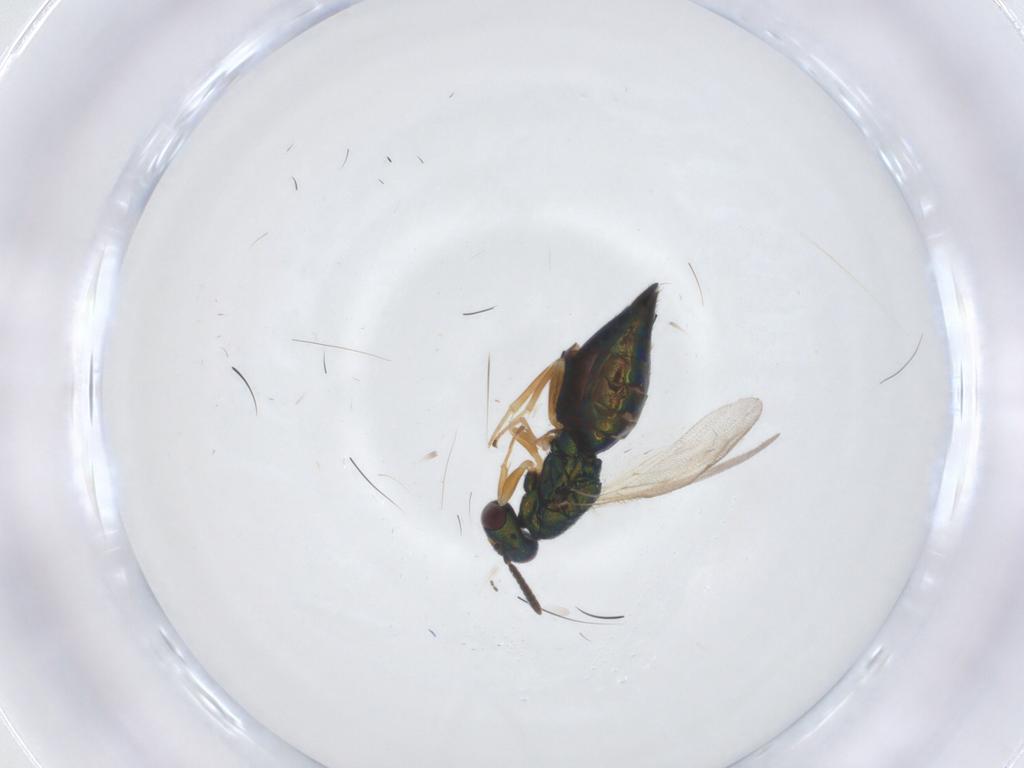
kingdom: Animalia
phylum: Arthropoda
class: Insecta
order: Hymenoptera
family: Pteromalidae
